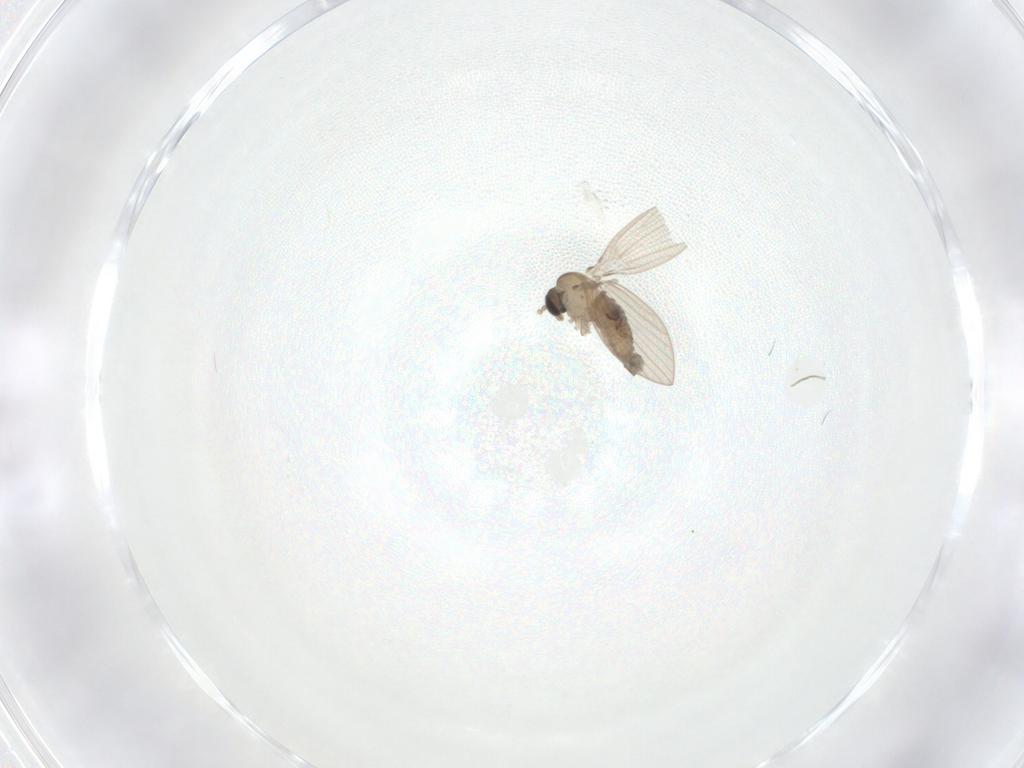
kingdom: Animalia
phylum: Arthropoda
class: Insecta
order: Diptera
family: Psychodidae
